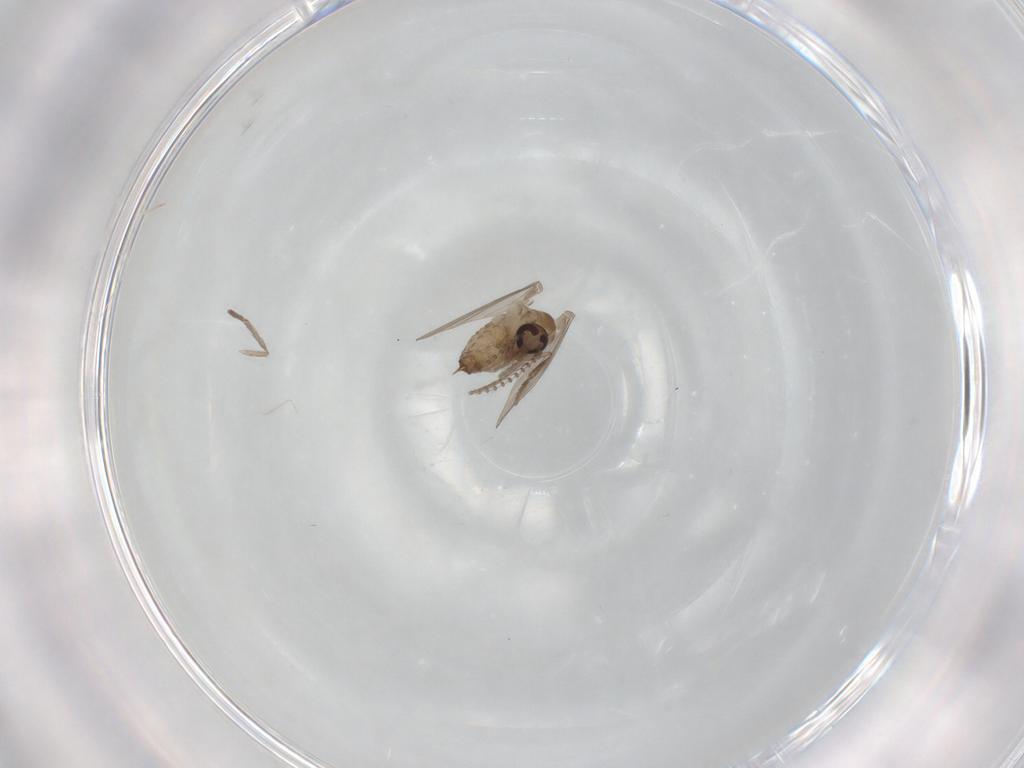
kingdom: Animalia
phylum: Arthropoda
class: Insecta
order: Diptera
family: Psychodidae
